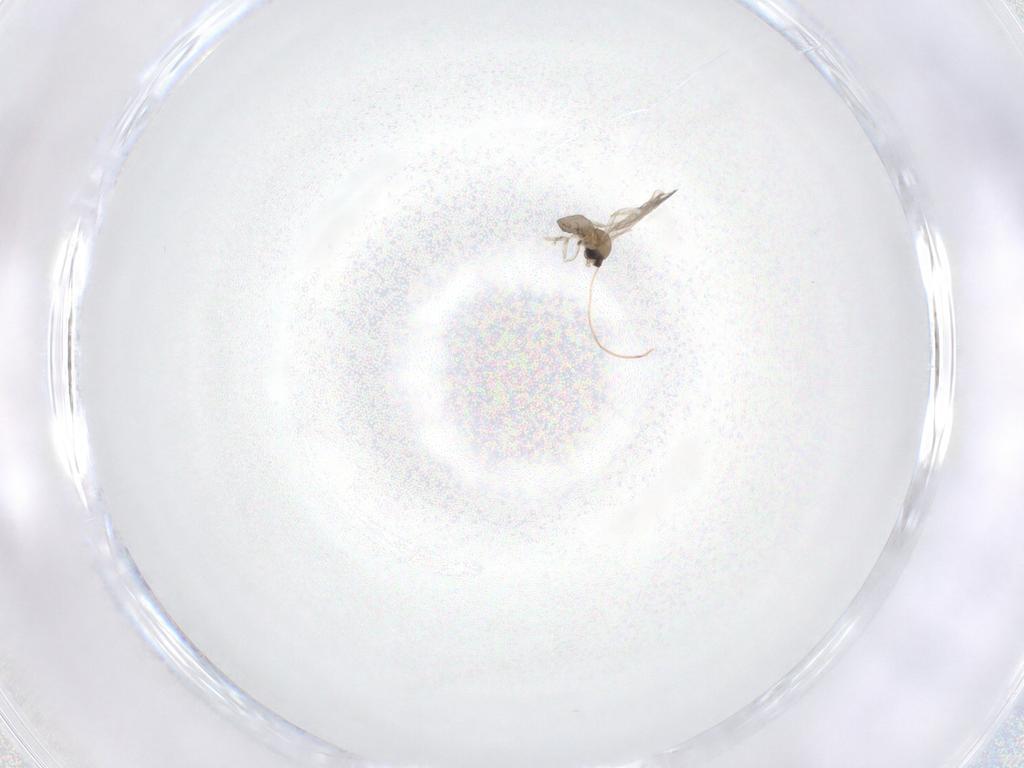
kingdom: Animalia
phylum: Arthropoda
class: Insecta
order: Diptera
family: Cecidomyiidae
